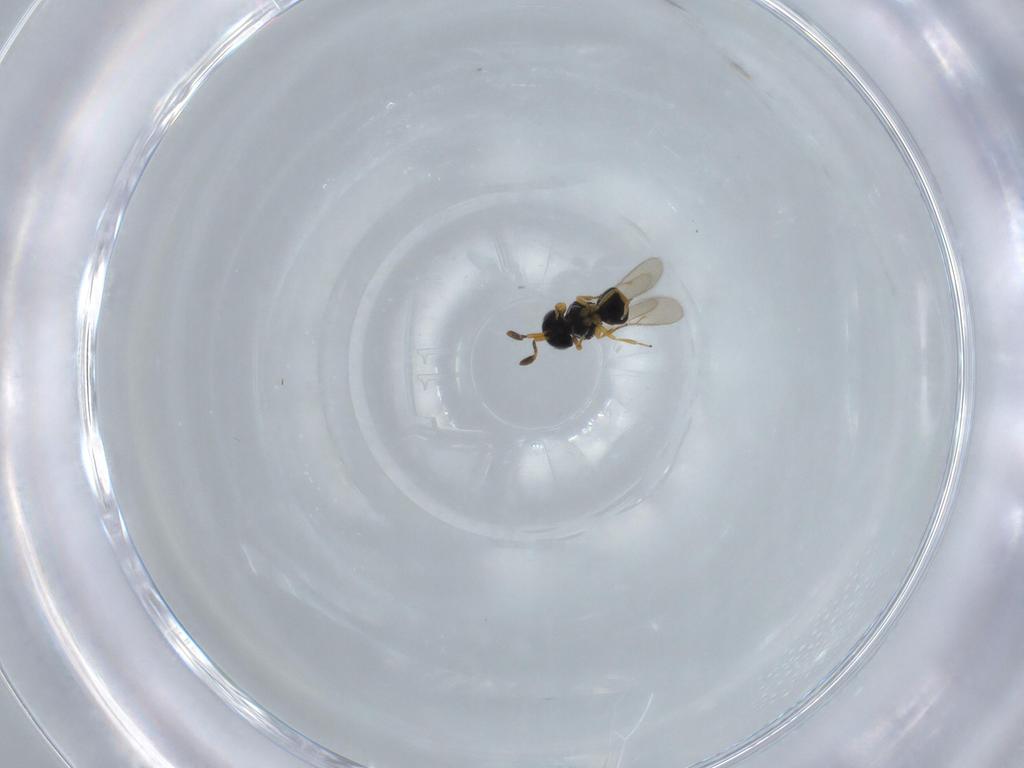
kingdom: Animalia
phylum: Arthropoda
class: Insecta
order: Hymenoptera
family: Scelionidae
